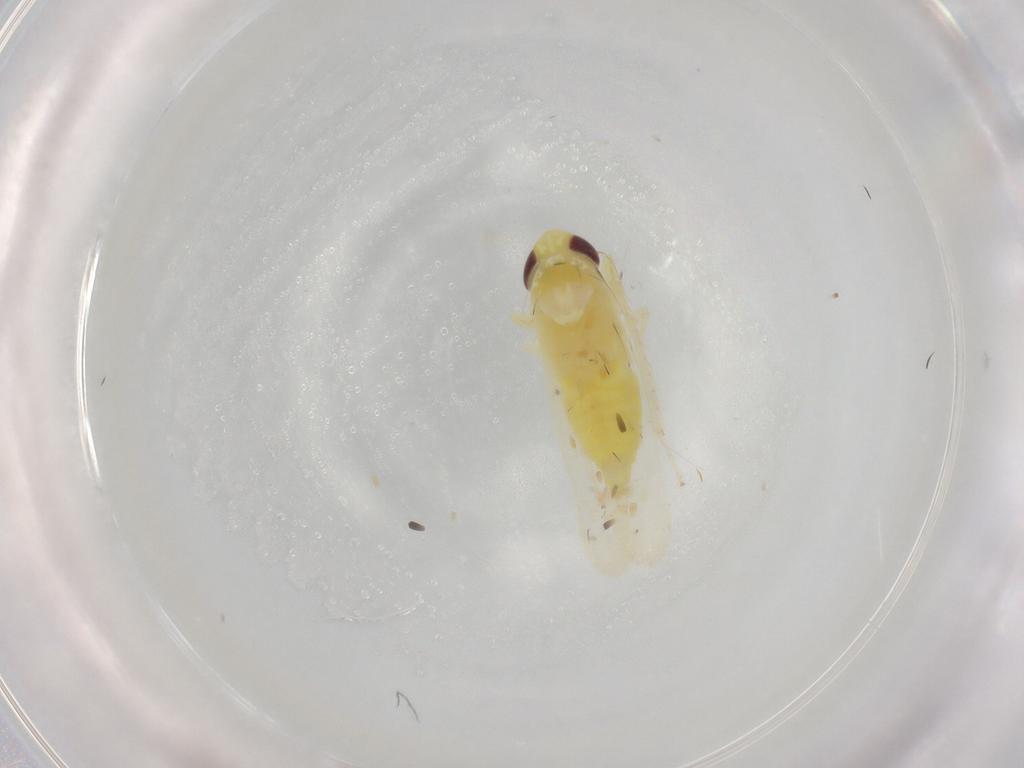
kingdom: Animalia
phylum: Arthropoda
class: Insecta
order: Hemiptera
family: Cicadellidae
